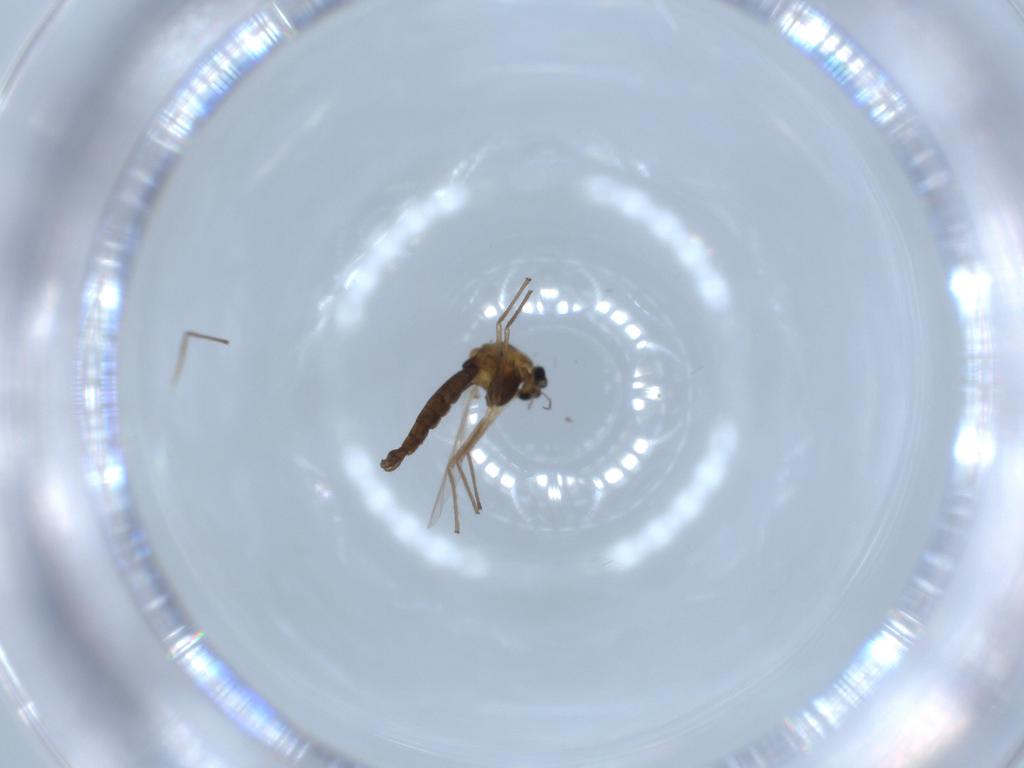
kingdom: Animalia
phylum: Arthropoda
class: Insecta
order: Diptera
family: Chironomidae
